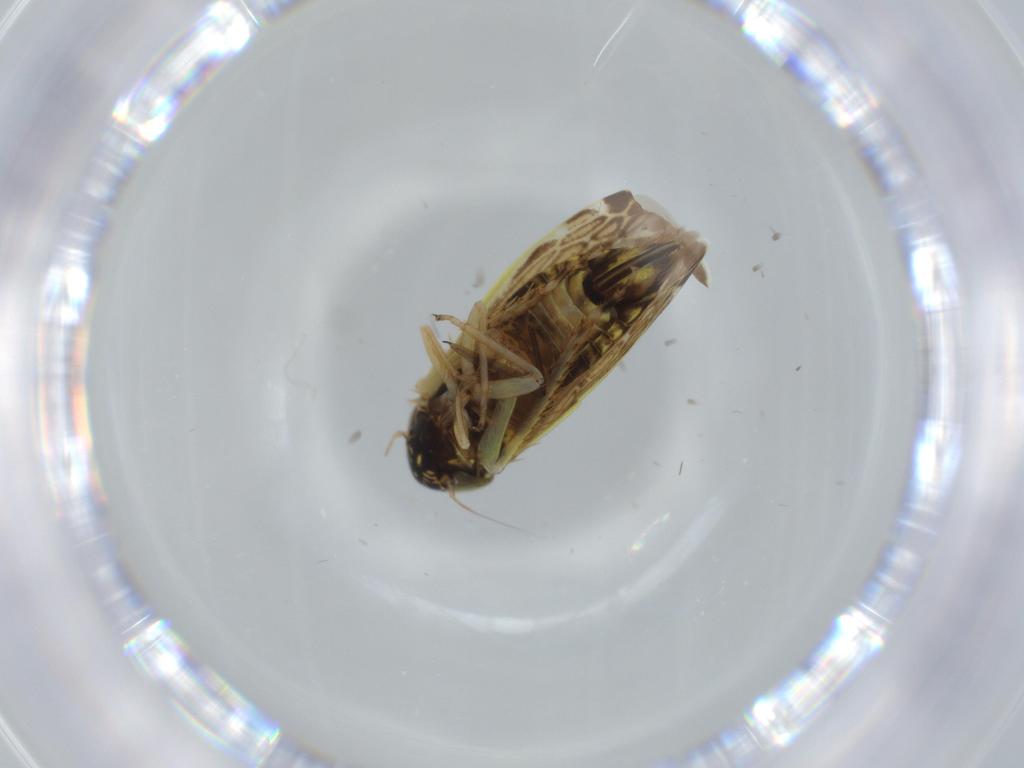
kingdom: Animalia
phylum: Arthropoda
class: Insecta
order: Hemiptera
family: Cicadellidae
